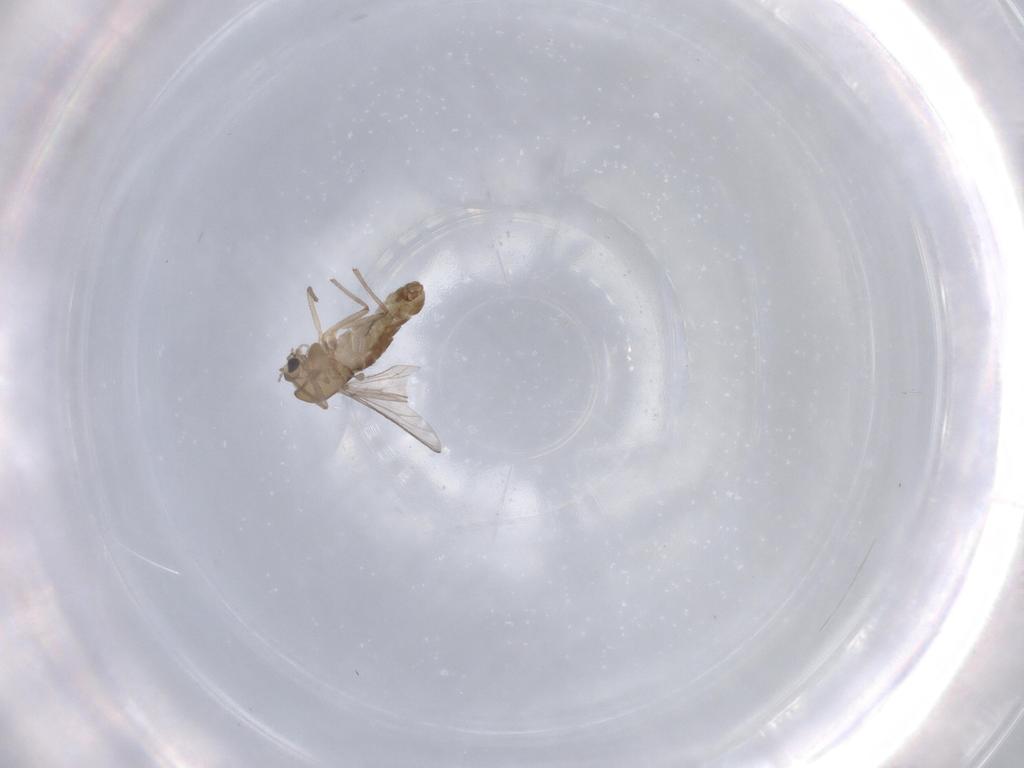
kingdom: Animalia
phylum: Arthropoda
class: Insecta
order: Diptera
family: Chironomidae
